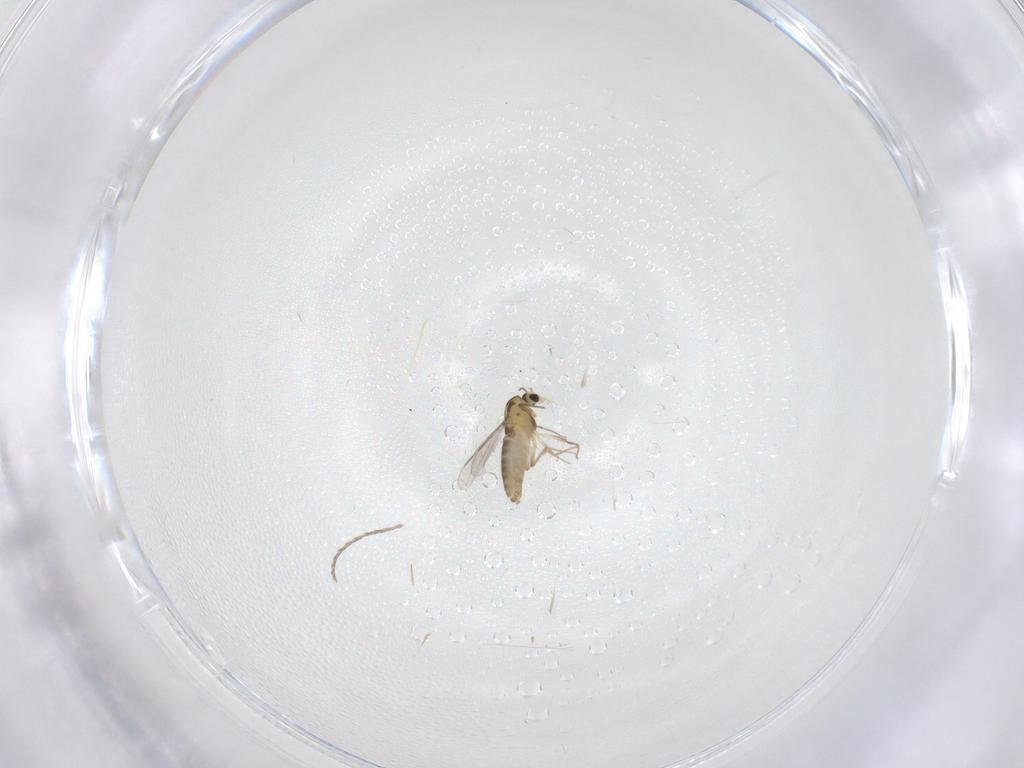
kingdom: Animalia
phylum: Arthropoda
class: Insecta
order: Diptera
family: Chironomidae
